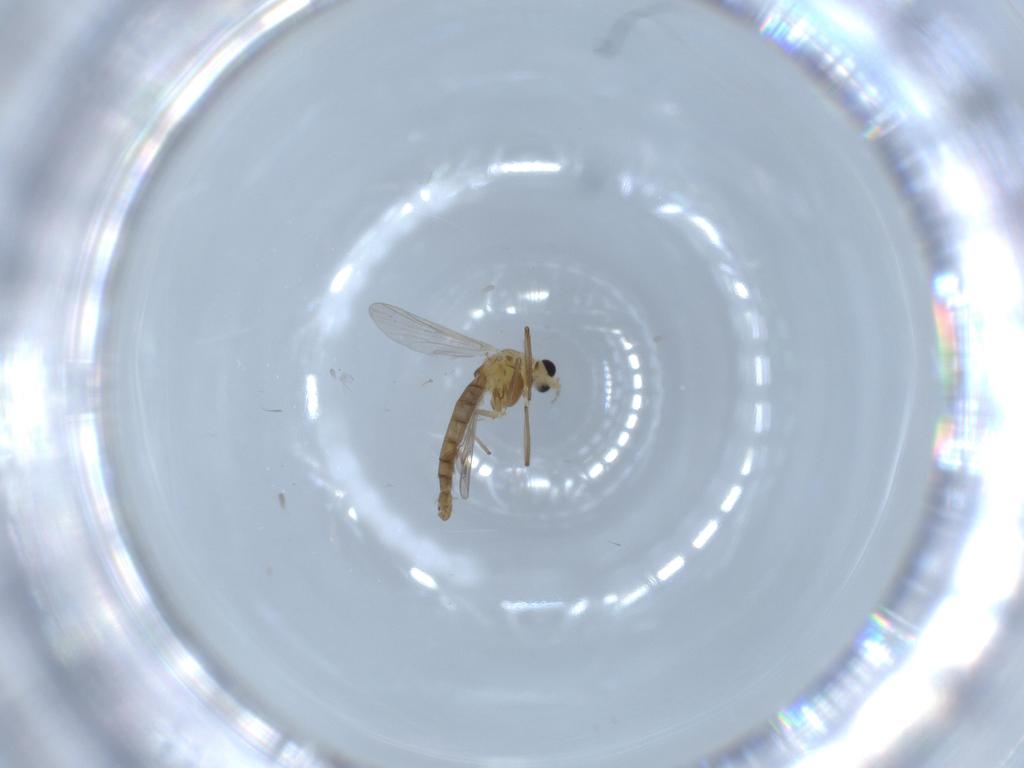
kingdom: Animalia
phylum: Arthropoda
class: Insecta
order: Diptera
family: Chironomidae
